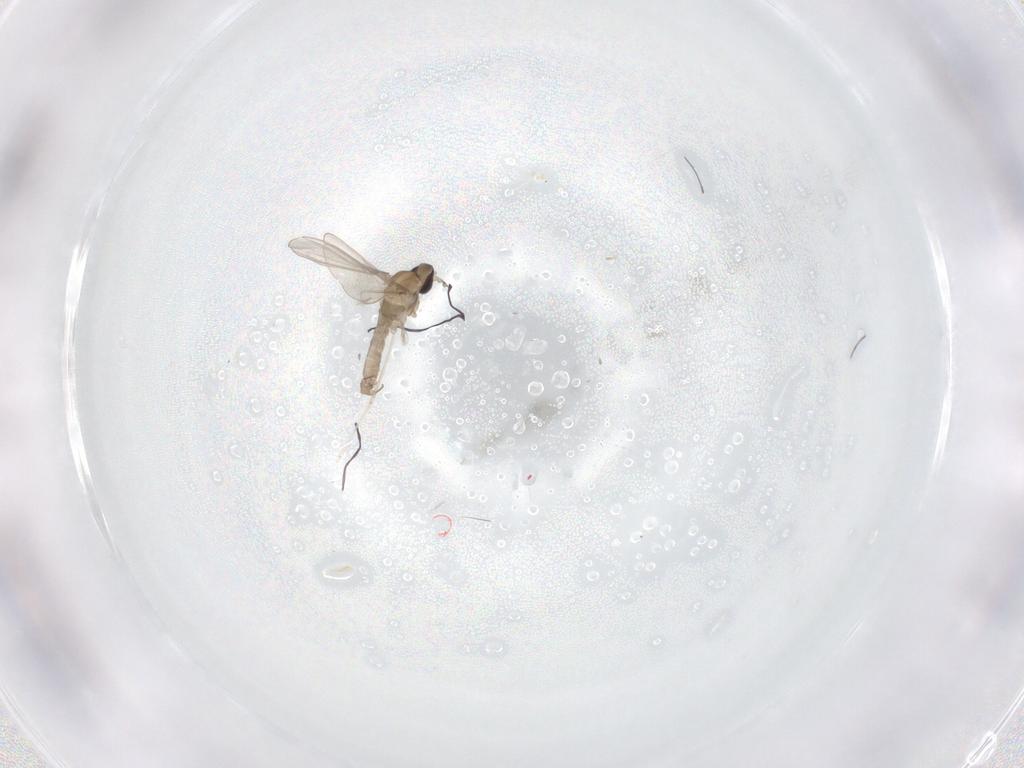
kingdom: Animalia
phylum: Arthropoda
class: Insecta
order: Diptera
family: Cecidomyiidae
